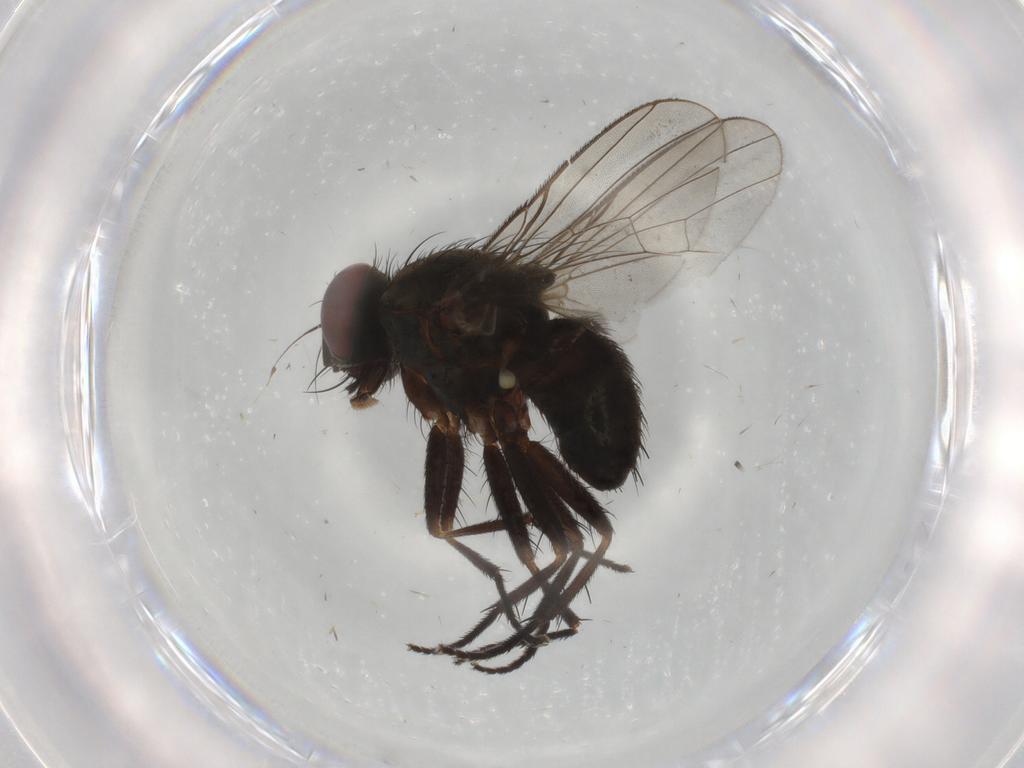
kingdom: Animalia
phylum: Arthropoda
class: Insecta
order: Diptera
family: Muscidae
